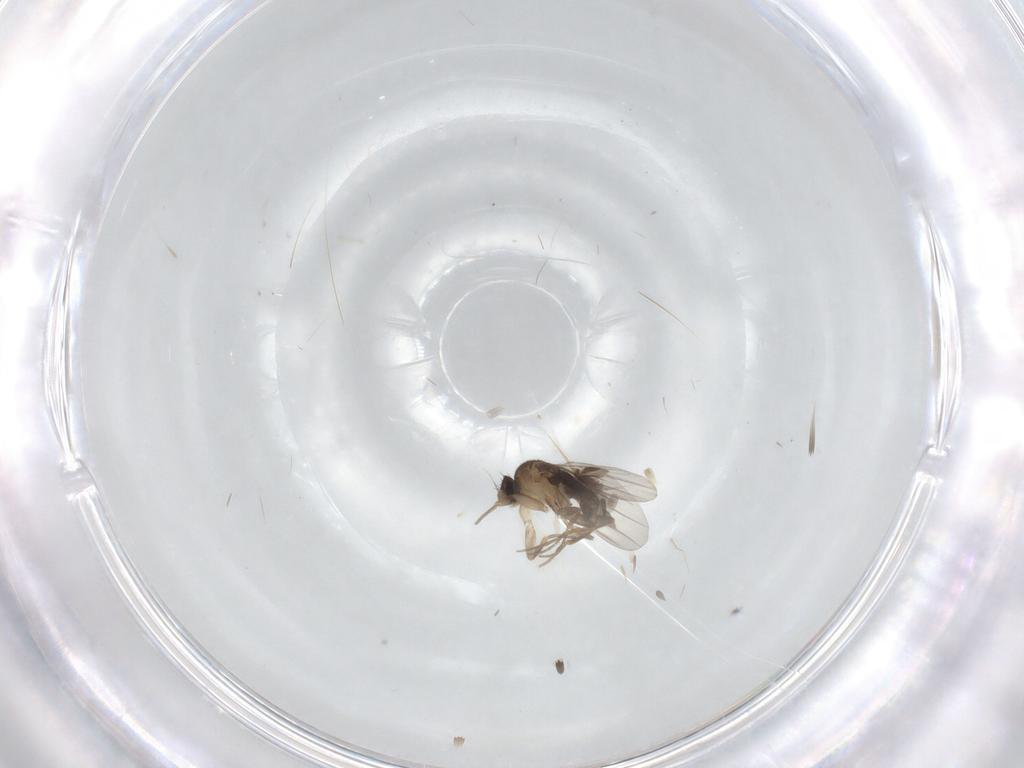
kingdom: Animalia
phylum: Arthropoda
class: Insecta
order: Diptera
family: Phoridae
